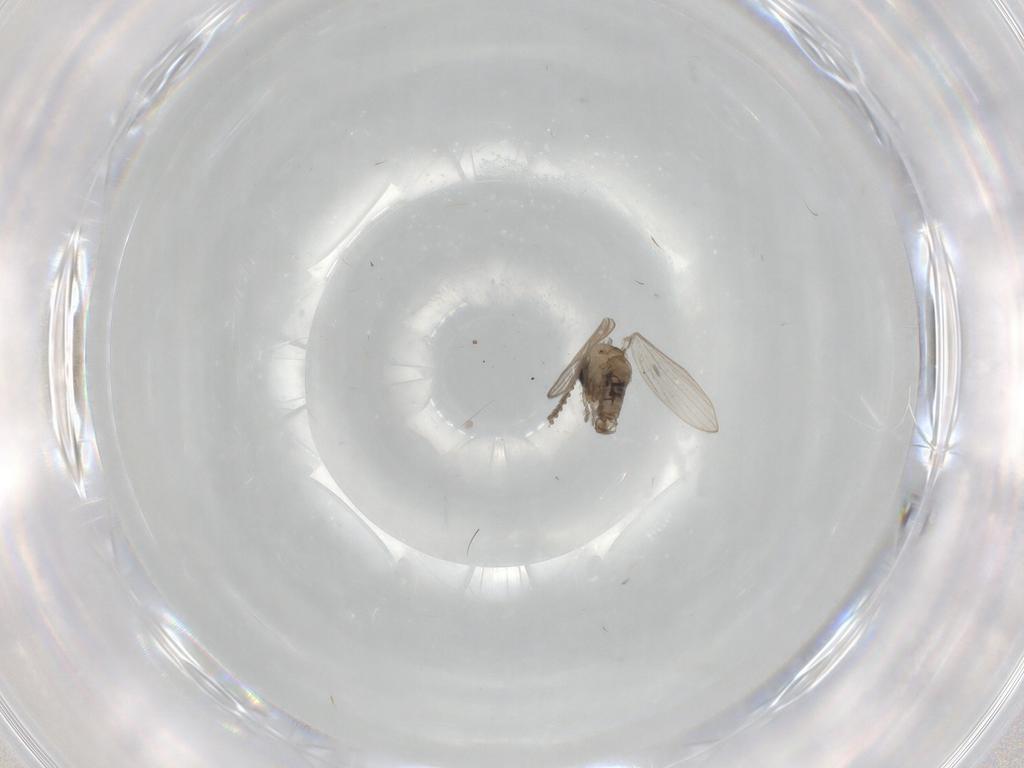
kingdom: Animalia
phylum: Arthropoda
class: Insecta
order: Diptera
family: Psychodidae
